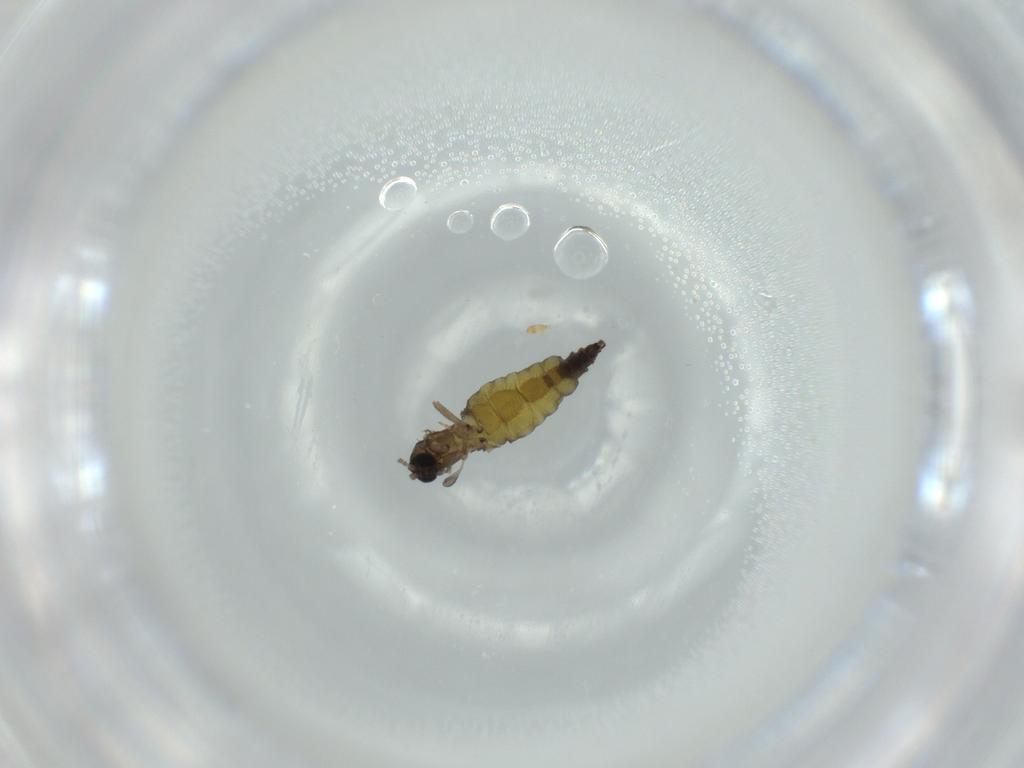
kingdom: Animalia
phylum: Arthropoda
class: Insecta
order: Diptera
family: Sciaridae
